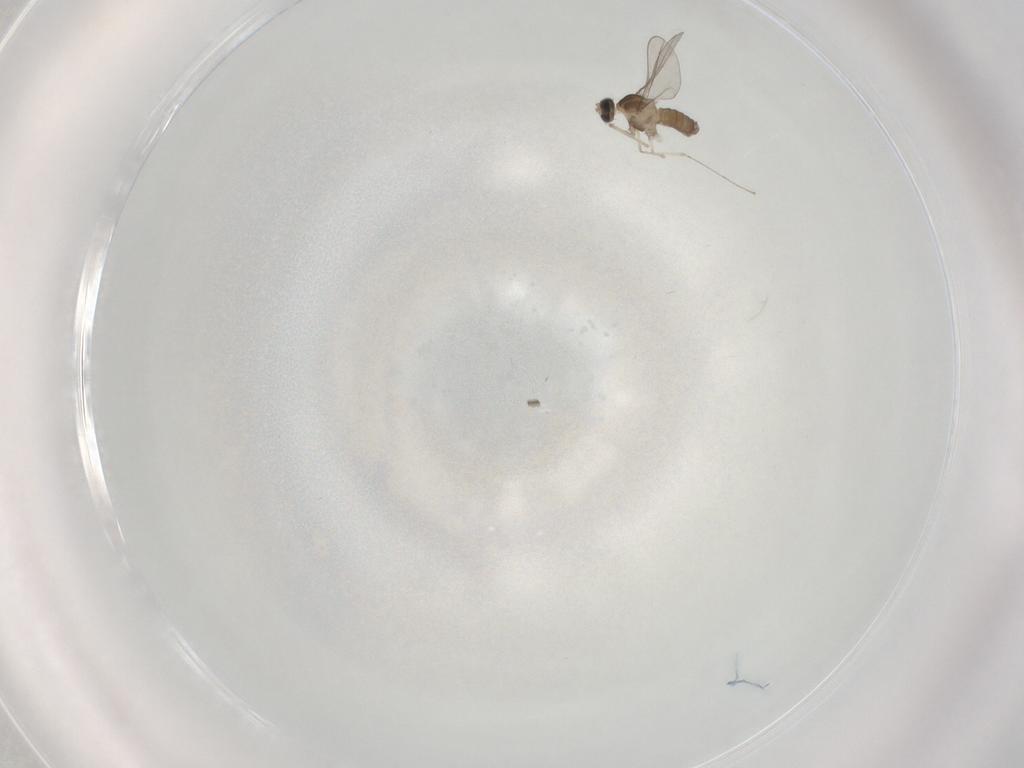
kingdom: Animalia
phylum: Arthropoda
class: Insecta
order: Diptera
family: Cecidomyiidae
